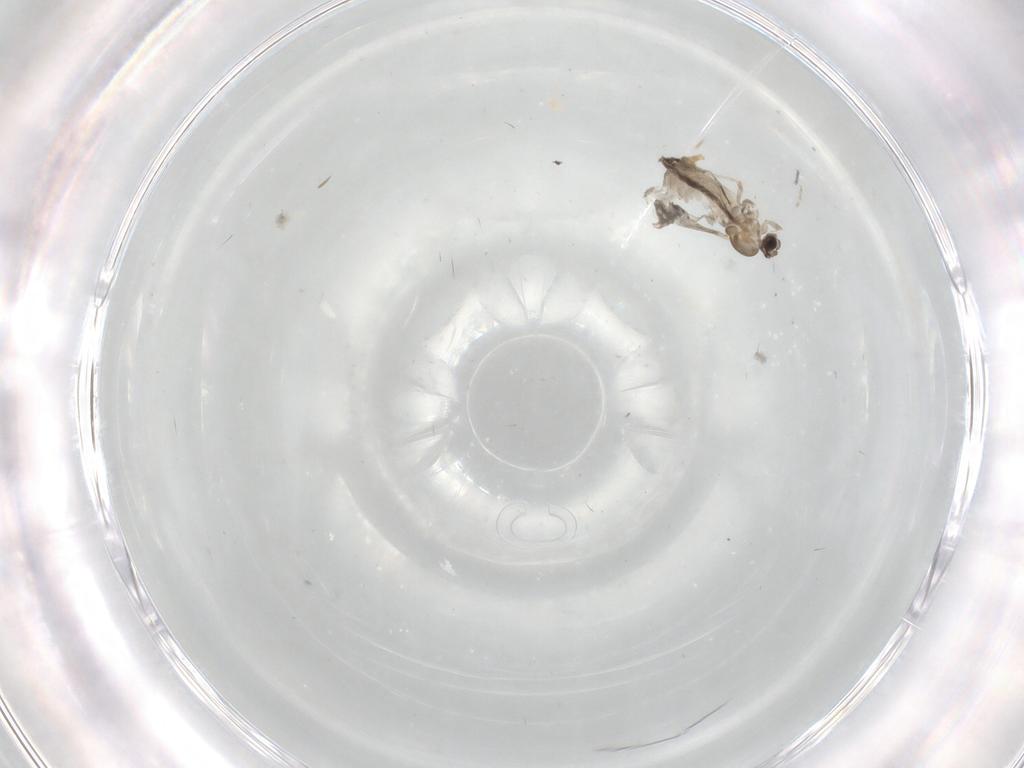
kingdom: Animalia
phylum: Arthropoda
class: Insecta
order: Diptera
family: Cecidomyiidae
